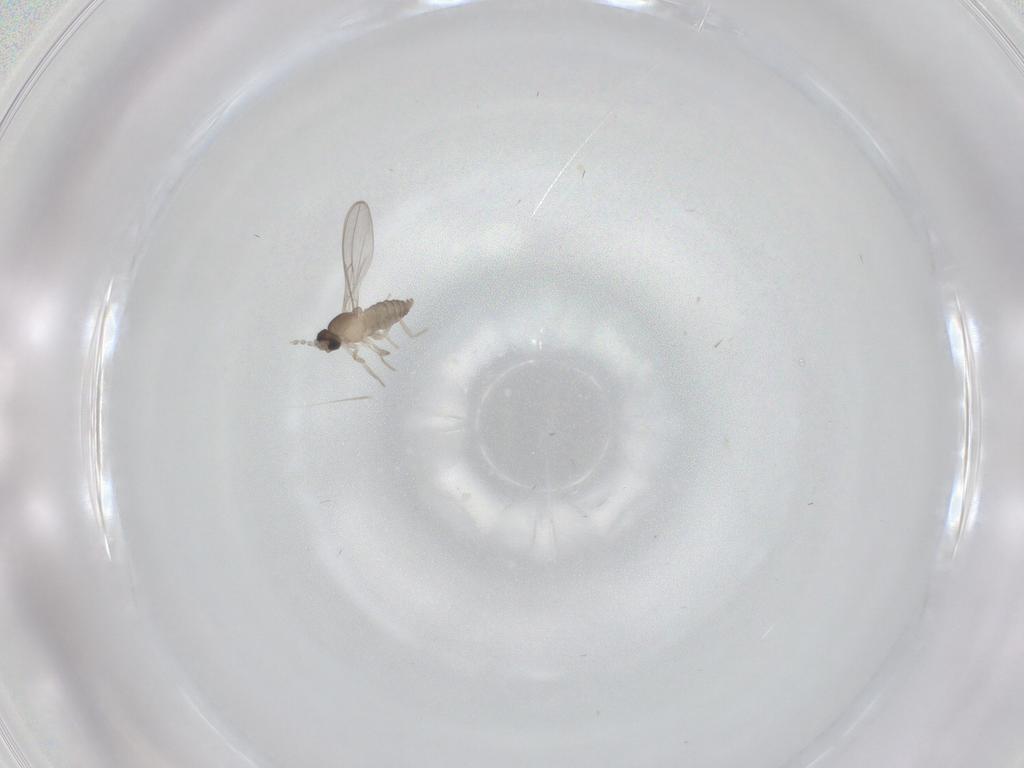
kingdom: Animalia
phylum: Arthropoda
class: Insecta
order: Diptera
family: Cecidomyiidae
